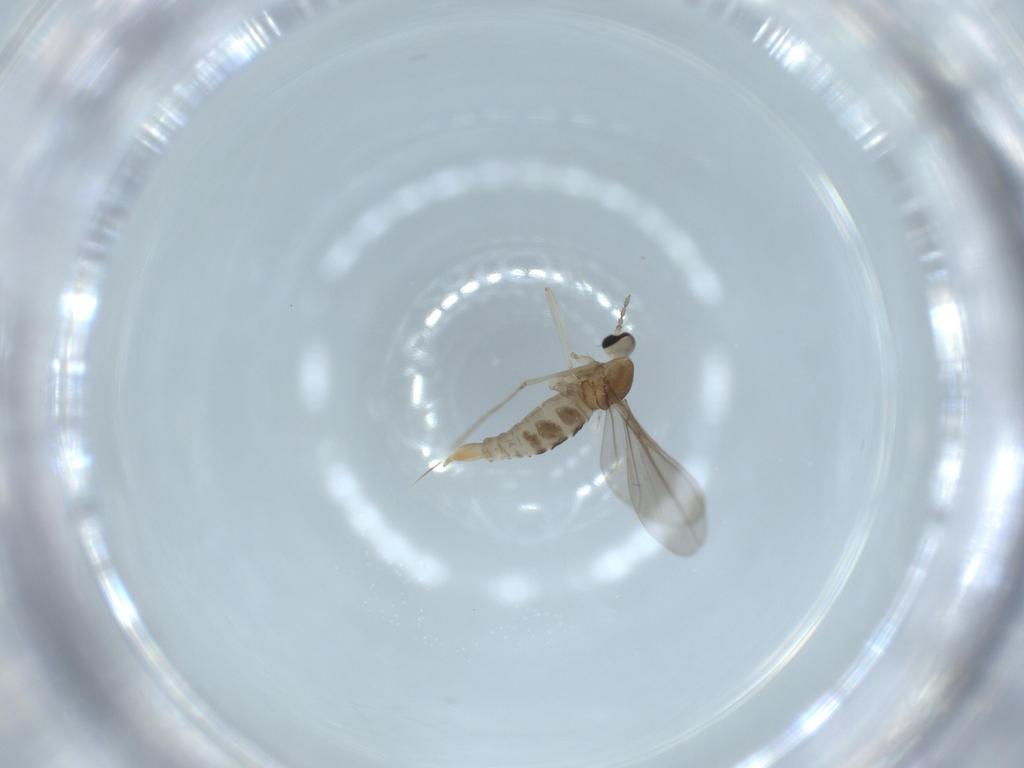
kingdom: Animalia
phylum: Arthropoda
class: Insecta
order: Diptera
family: Cecidomyiidae
